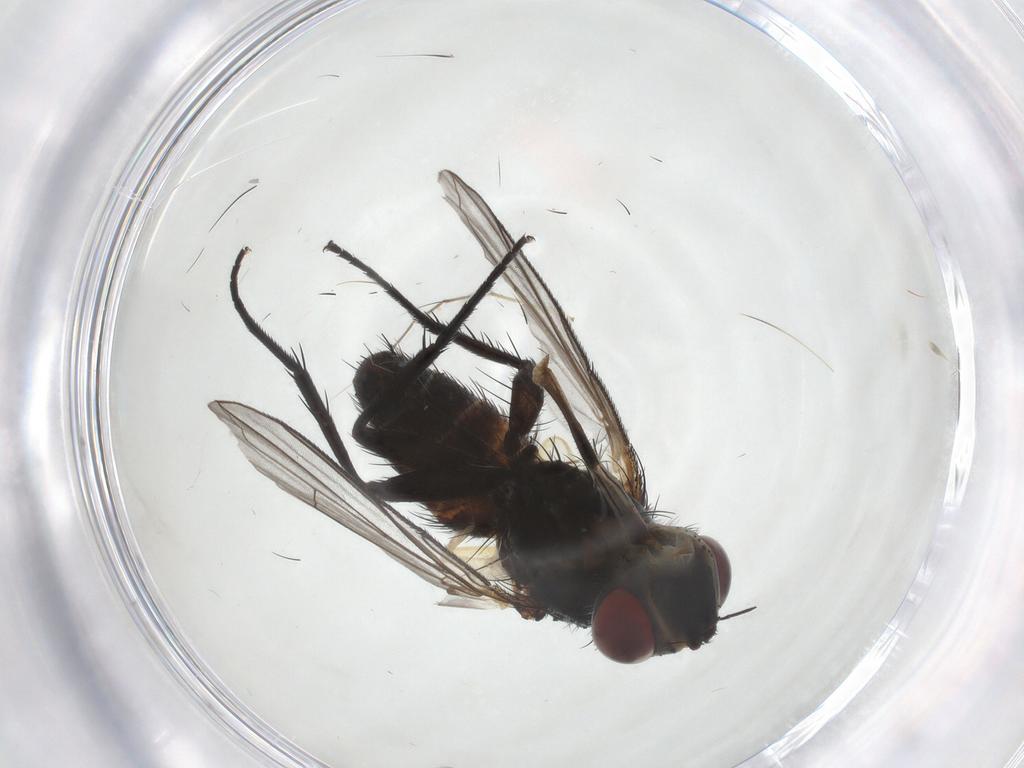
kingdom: Animalia
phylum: Arthropoda
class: Insecta
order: Diptera
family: Tachinidae
